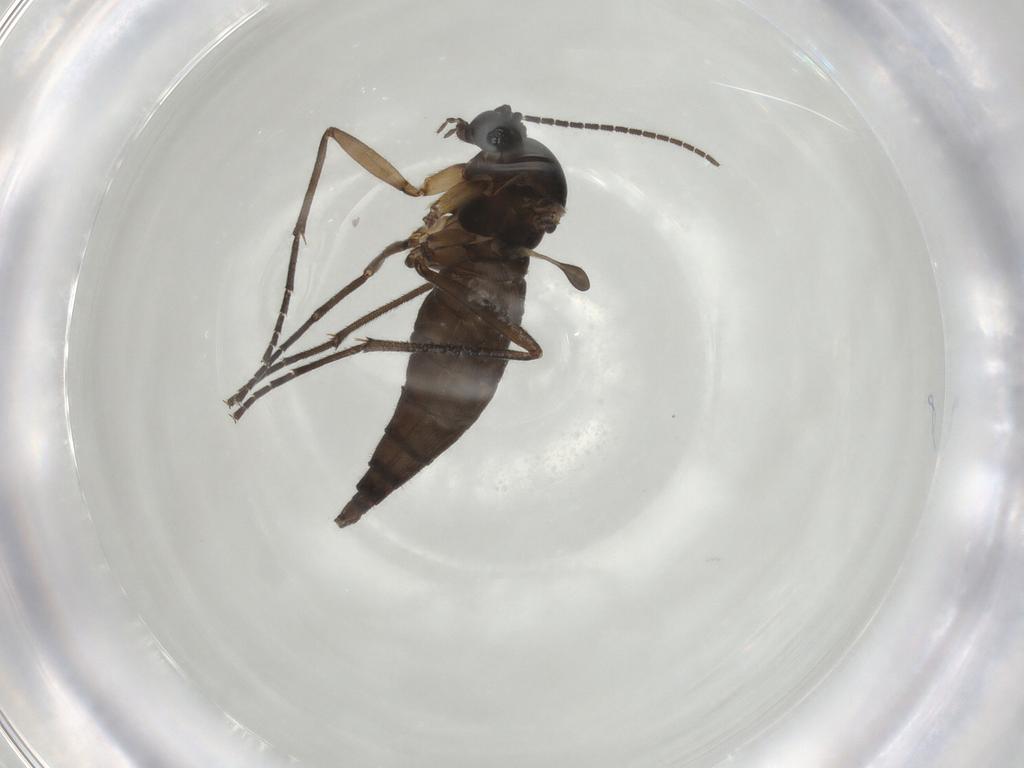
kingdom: Animalia
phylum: Arthropoda
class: Insecta
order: Diptera
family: Sciaridae
